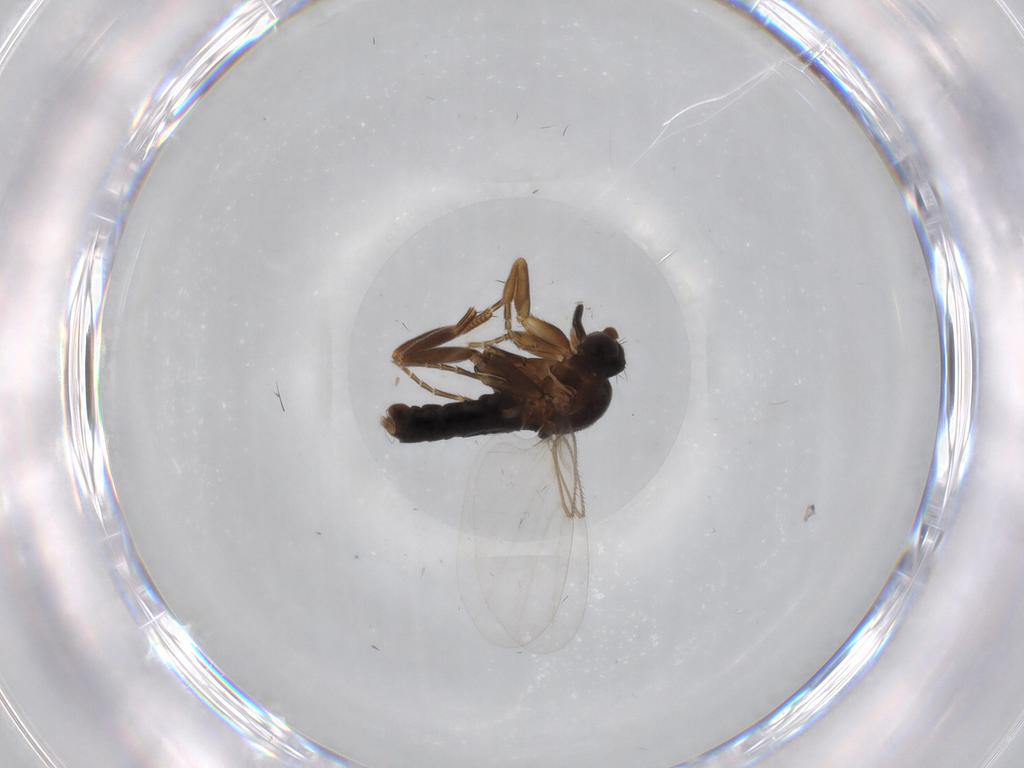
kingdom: Animalia
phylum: Arthropoda
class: Insecta
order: Diptera
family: Phoridae
